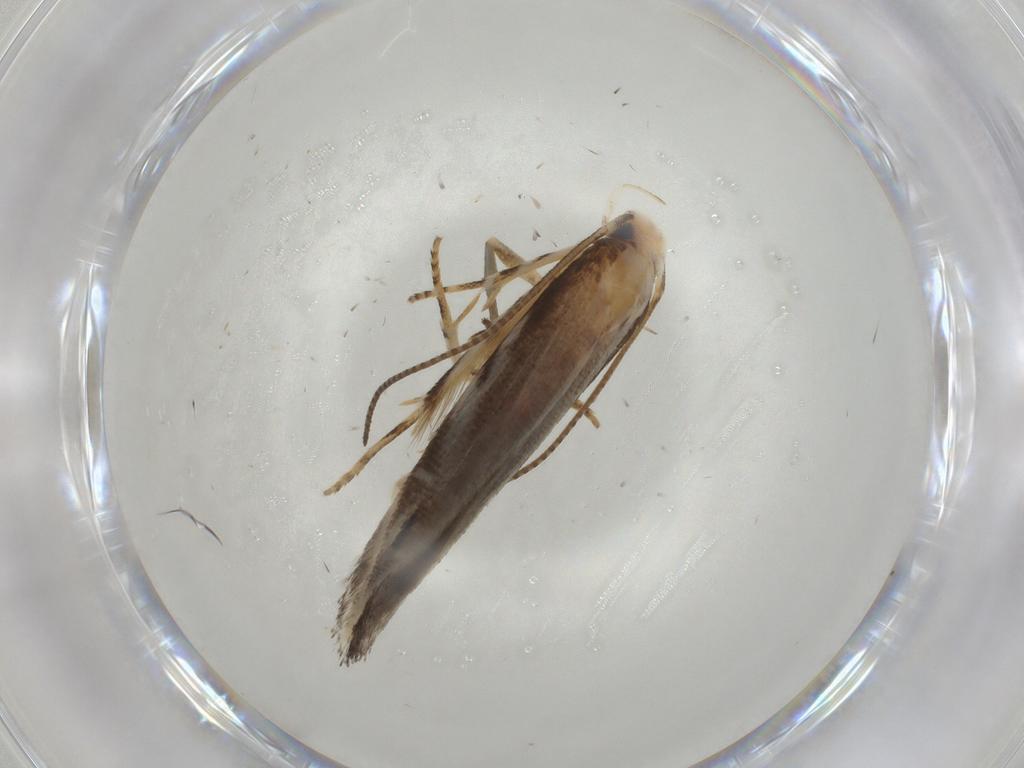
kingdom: Animalia
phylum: Arthropoda
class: Insecta
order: Lepidoptera
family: Elachistidae
